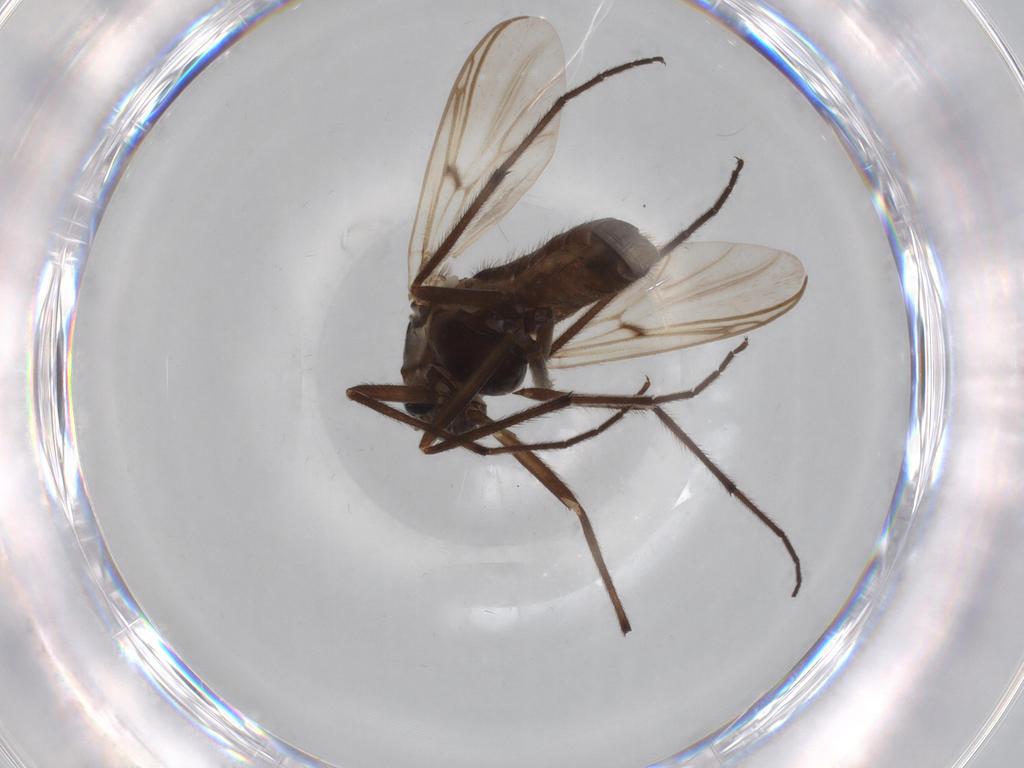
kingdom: Animalia
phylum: Arthropoda
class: Insecta
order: Diptera
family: Chironomidae
